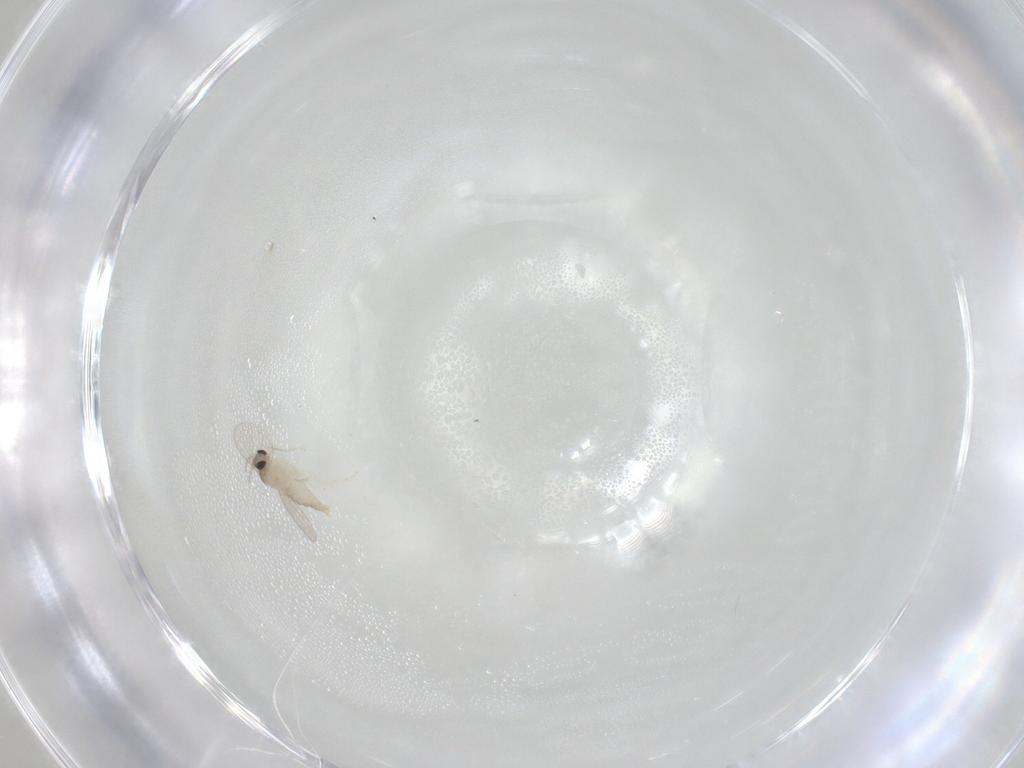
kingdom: Animalia
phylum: Arthropoda
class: Insecta
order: Diptera
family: Cecidomyiidae
